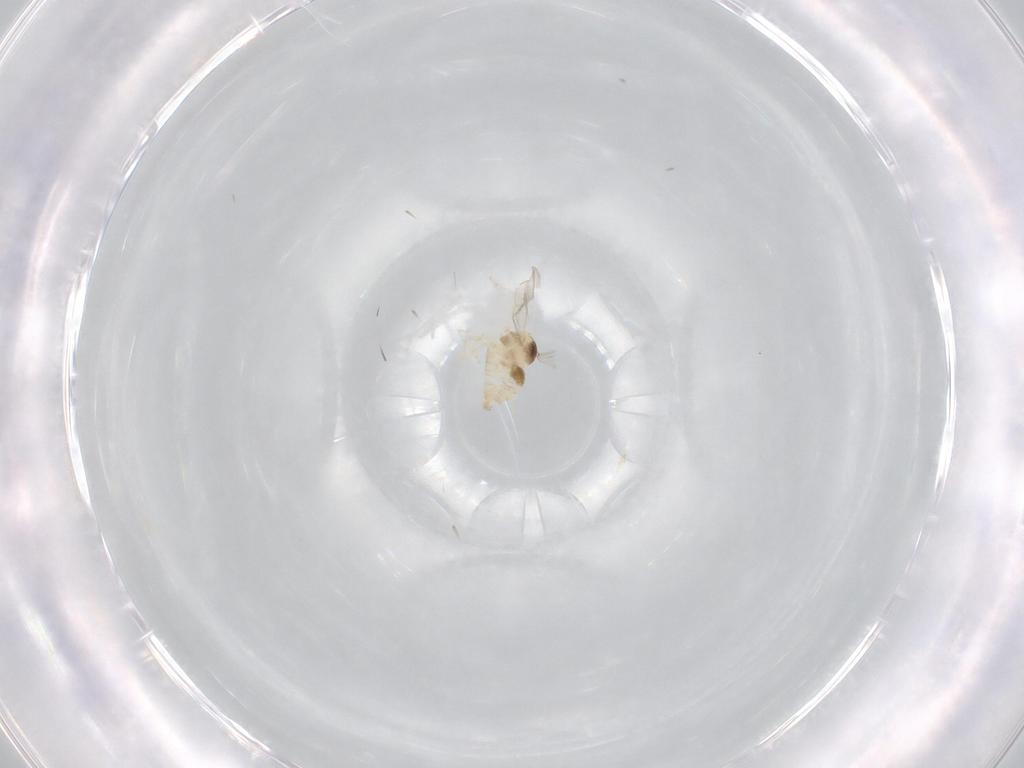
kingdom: Animalia
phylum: Arthropoda
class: Insecta
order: Diptera
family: Cecidomyiidae
